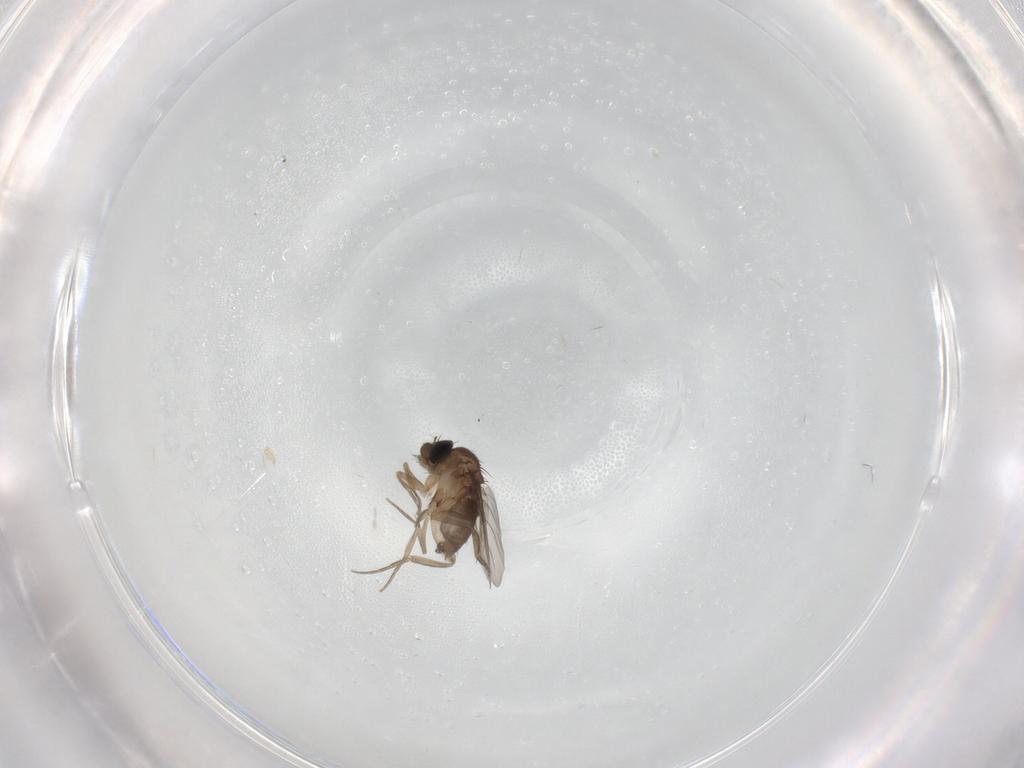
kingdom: Animalia
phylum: Arthropoda
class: Insecta
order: Diptera
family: Phoridae
